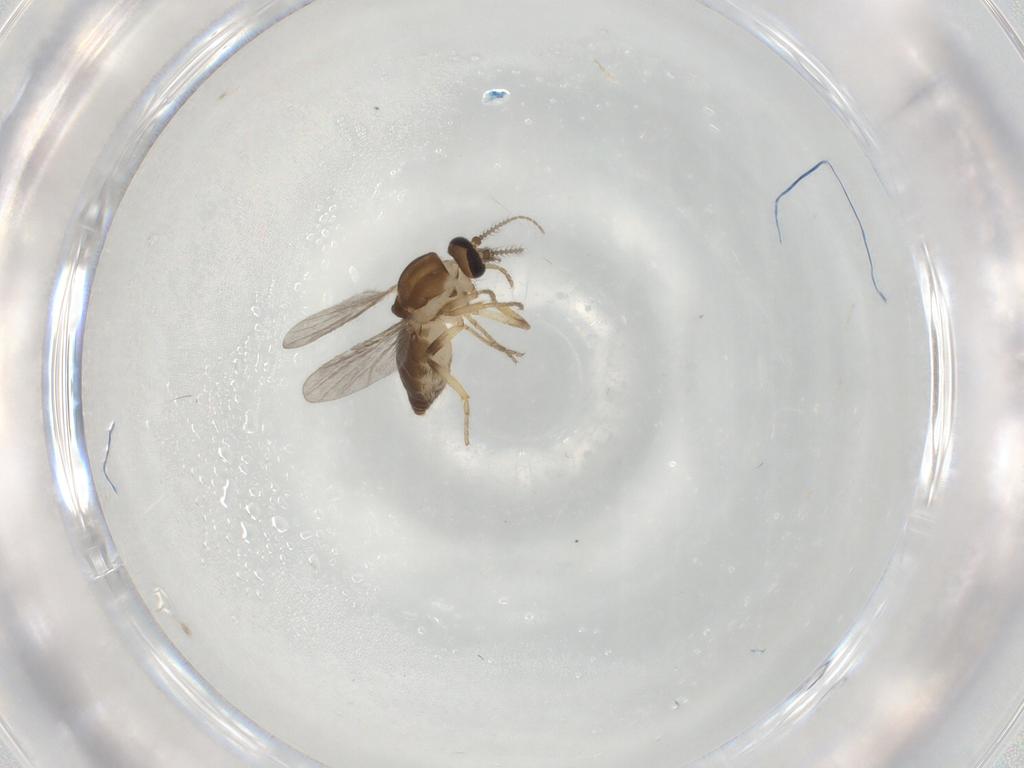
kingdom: Animalia
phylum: Arthropoda
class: Insecta
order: Diptera
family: Ceratopogonidae
